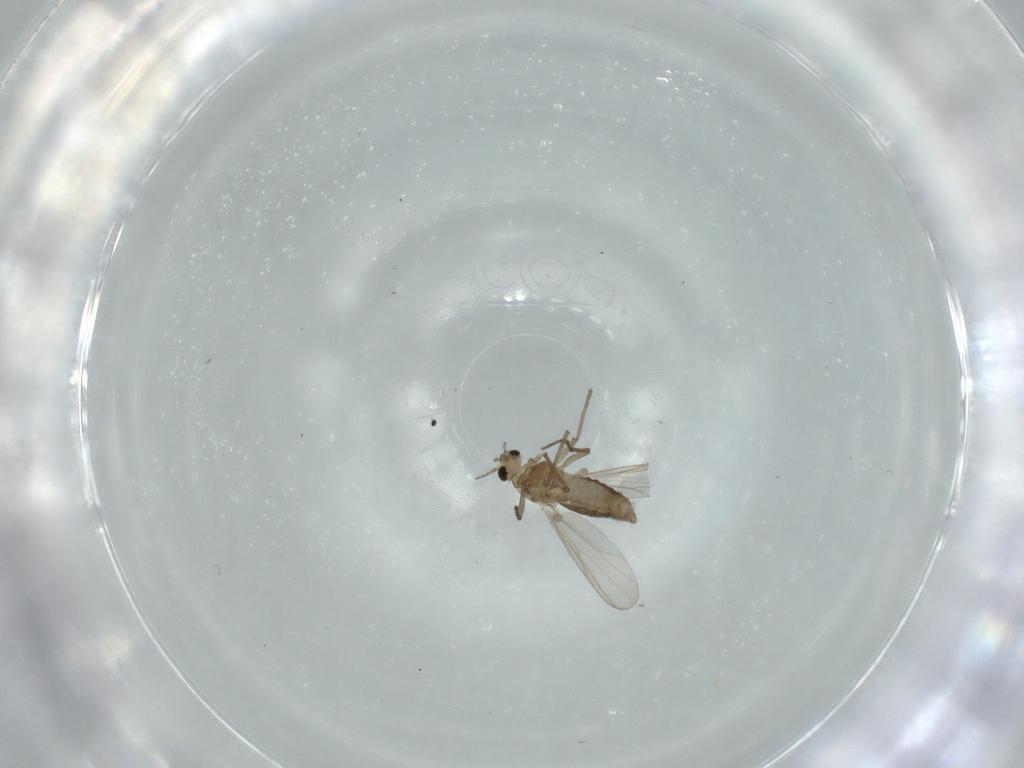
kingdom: Animalia
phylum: Arthropoda
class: Insecta
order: Diptera
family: Chironomidae
